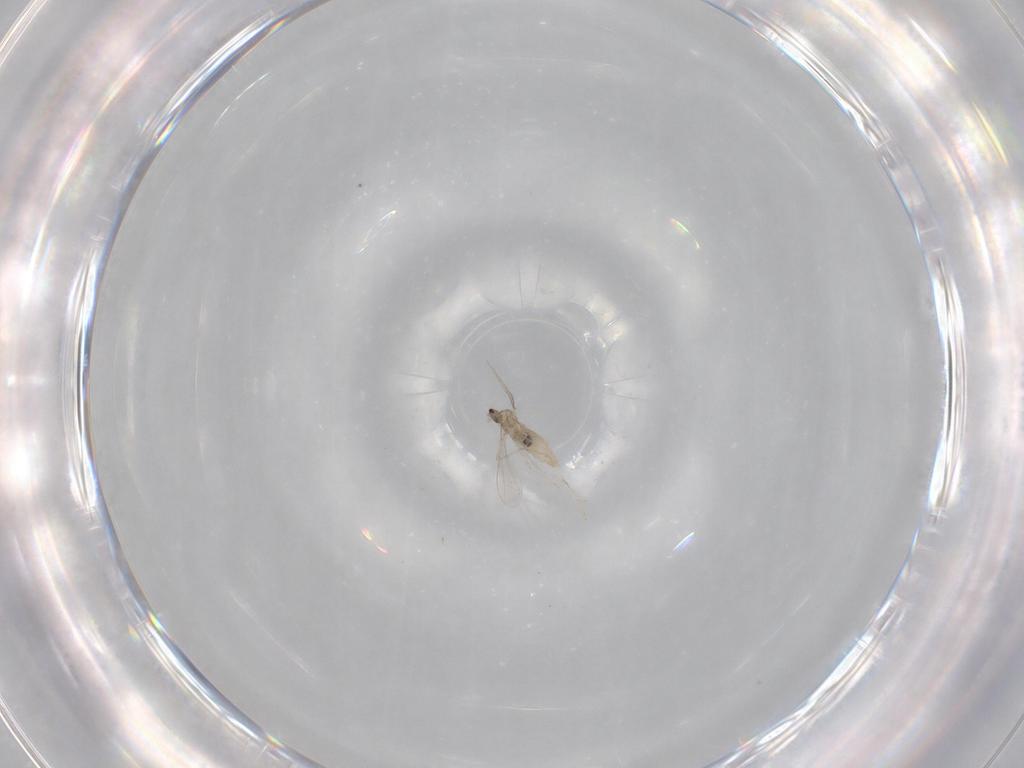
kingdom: Animalia
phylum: Arthropoda
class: Insecta
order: Diptera
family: Cecidomyiidae
